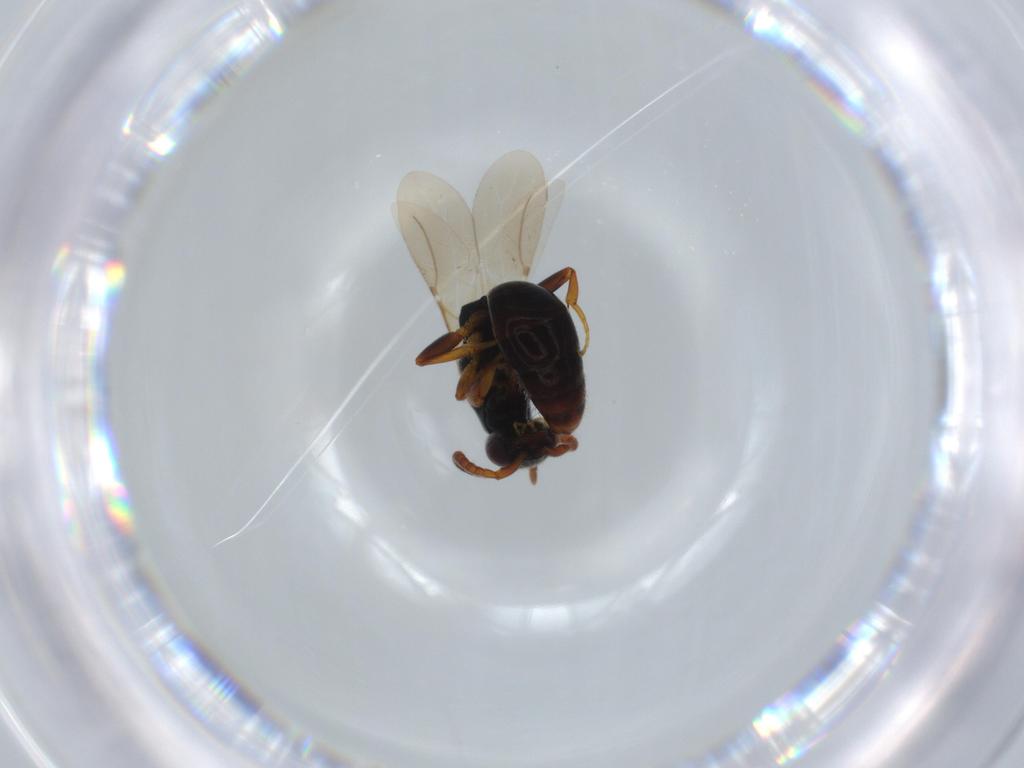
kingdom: Animalia
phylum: Arthropoda
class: Insecta
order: Hymenoptera
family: Bethylidae
